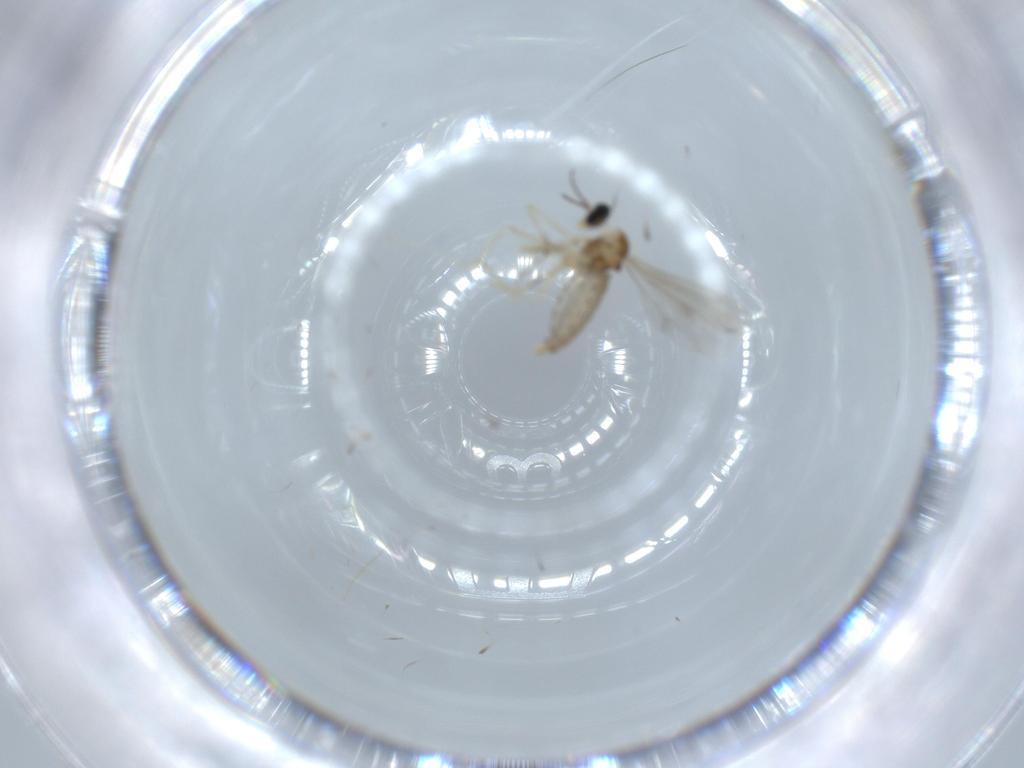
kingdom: Animalia
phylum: Arthropoda
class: Insecta
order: Diptera
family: Cecidomyiidae
